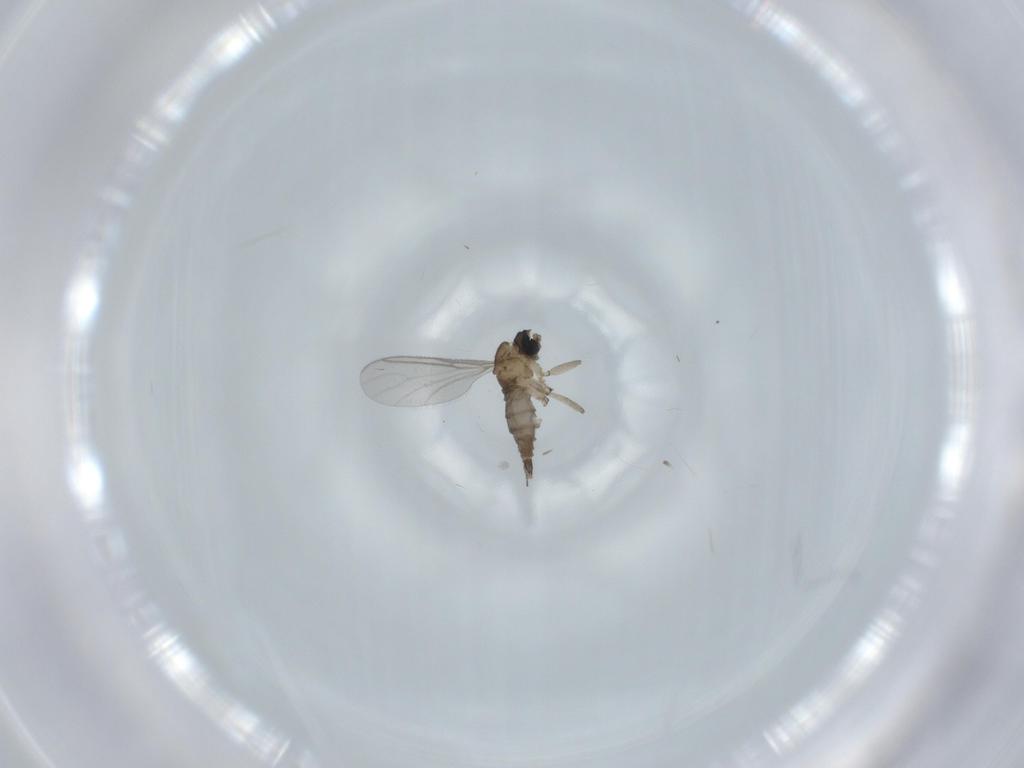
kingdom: Animalia
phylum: Arthropoda
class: Insecta
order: Diptera
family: Sciaridae
